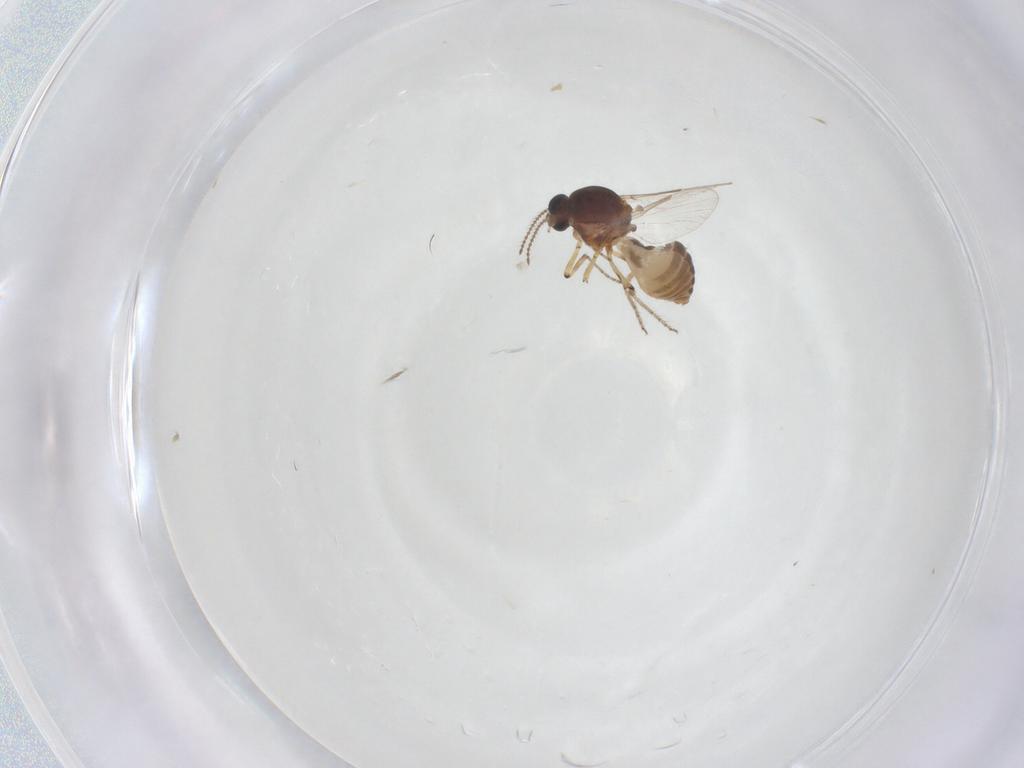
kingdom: Animalia
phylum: Arthropoda
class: Insecta
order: Diptera
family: Ceratopogonidae
